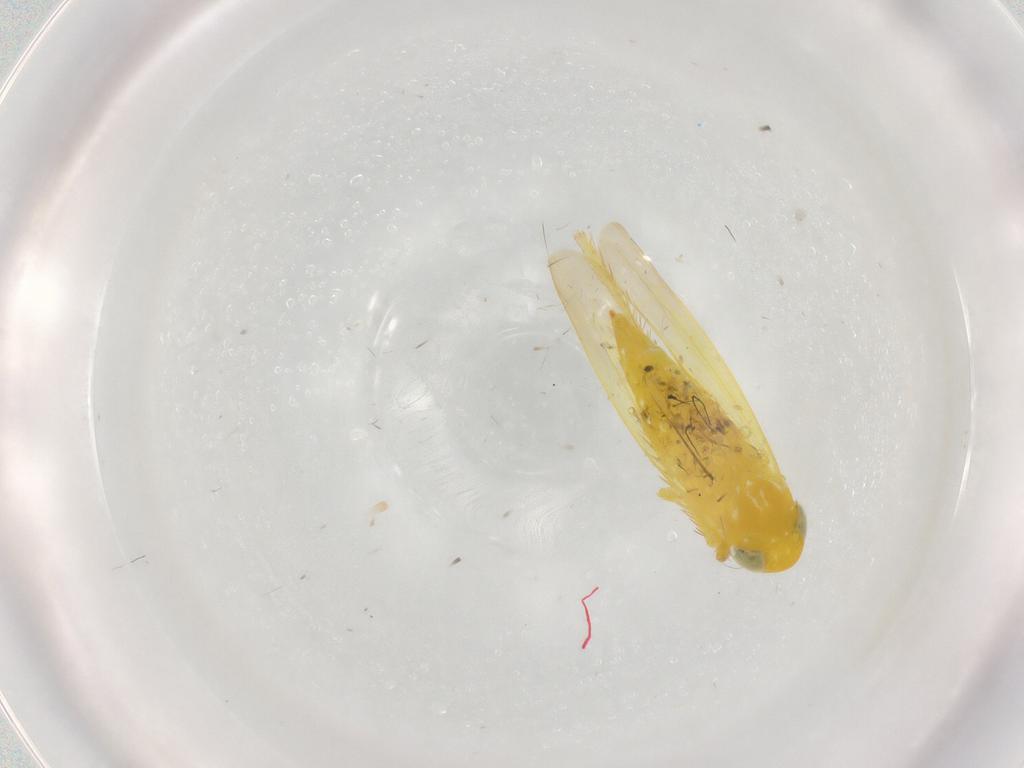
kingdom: Animalia
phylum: Arthropoda
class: Insecta
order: Hemiptera
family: Cicadellidae
